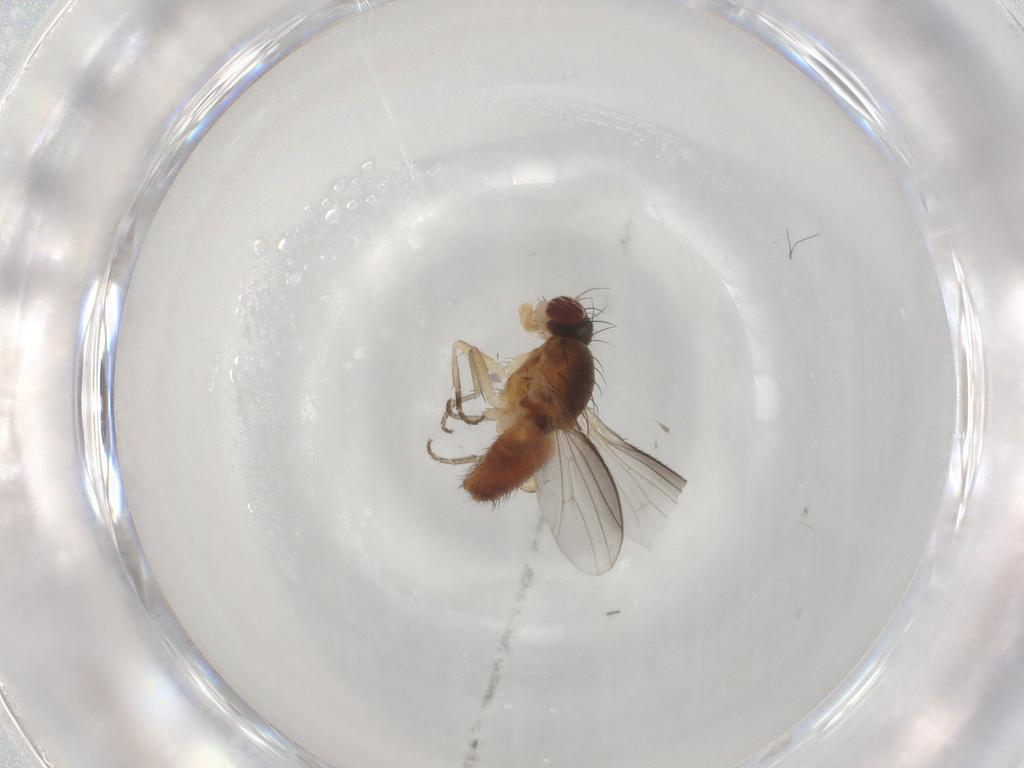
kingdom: Animalia
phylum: Arthropoda
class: Insecta
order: Diptera
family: Heleomyzidae
